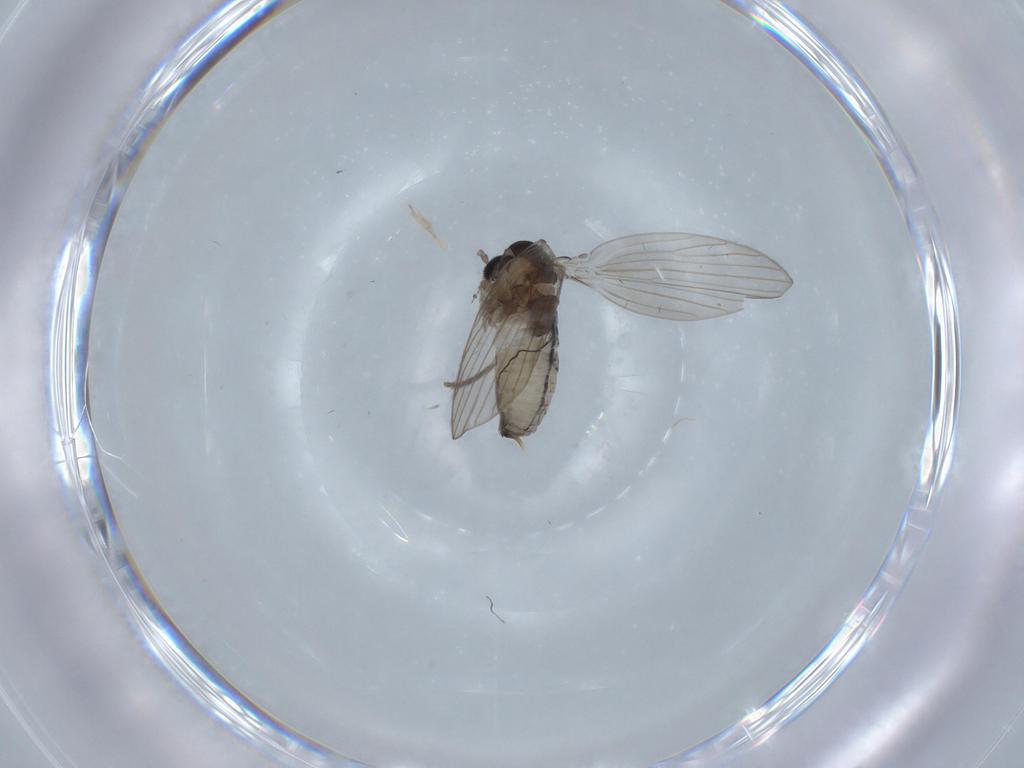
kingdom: Animalia
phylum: Arthropoda
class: Insecta
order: Diptera
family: Psychodidae
